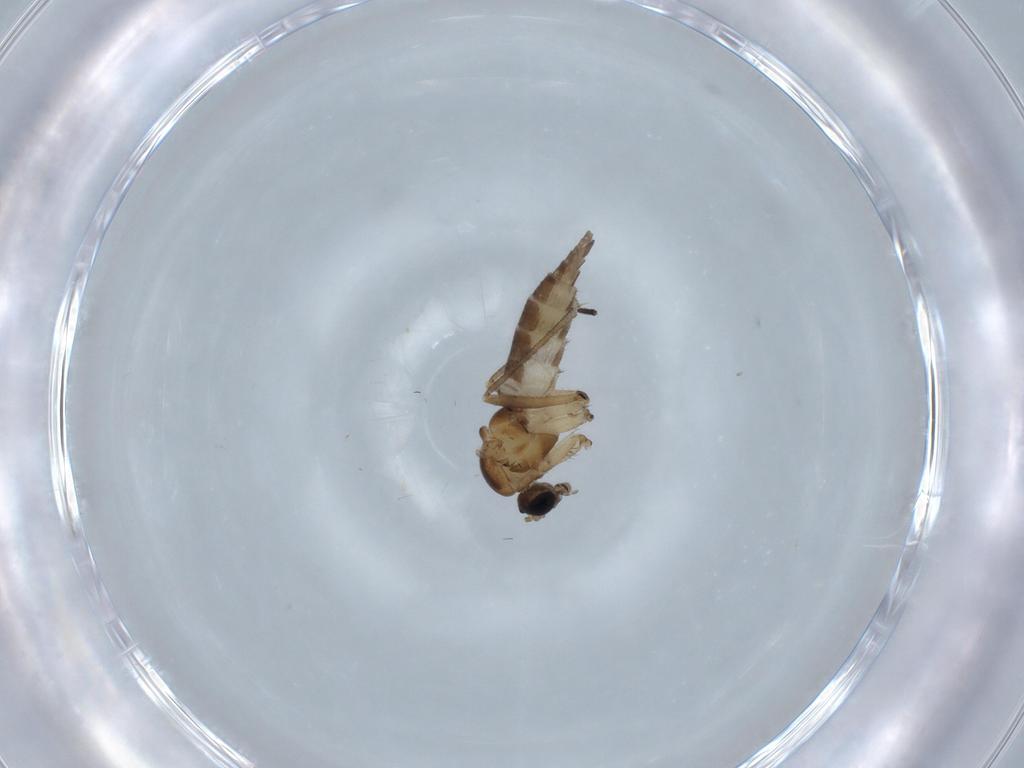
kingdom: Animalia
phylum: Arthropoda
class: Insecta
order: Diptera
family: Sciaridae
